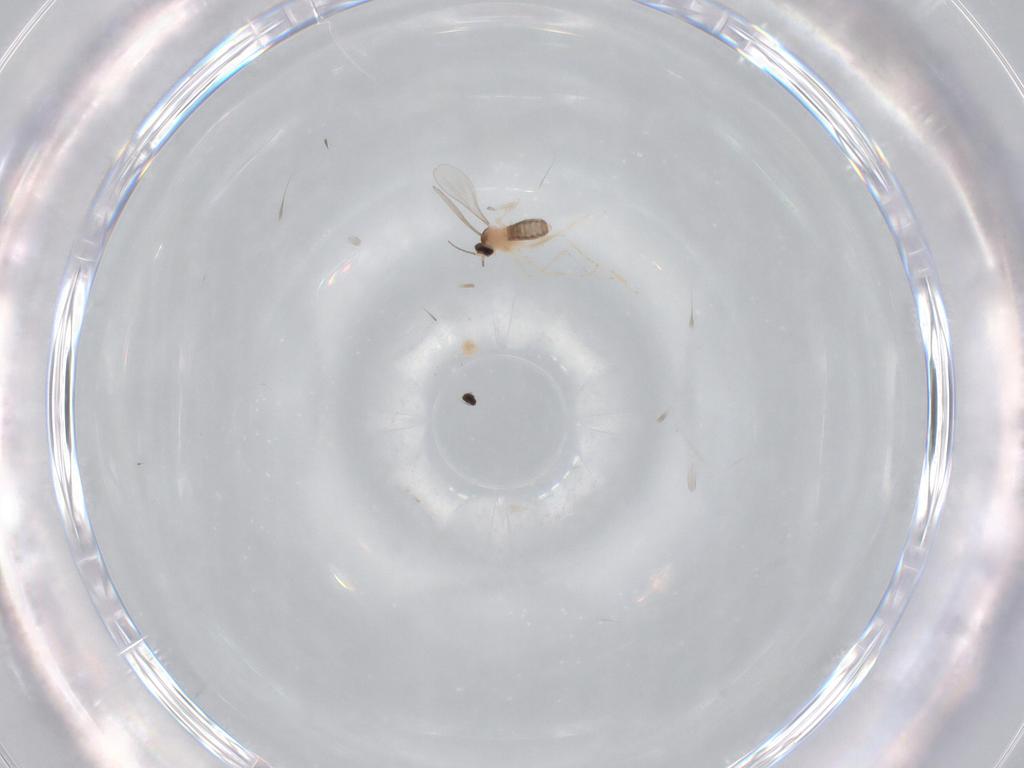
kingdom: Animalia
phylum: Arthropoda
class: Insecta
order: Diptera
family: Cecidomyiidae
